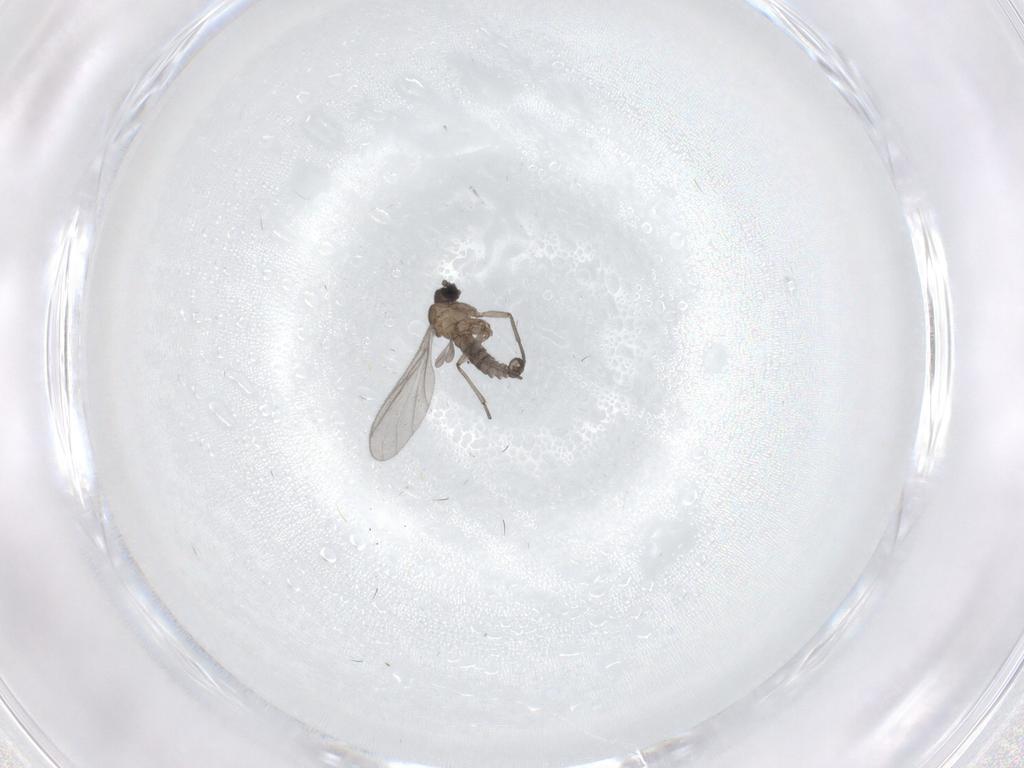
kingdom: Animalia
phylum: Arthropoda
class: Insecta
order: Diptera
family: Sciaridae
